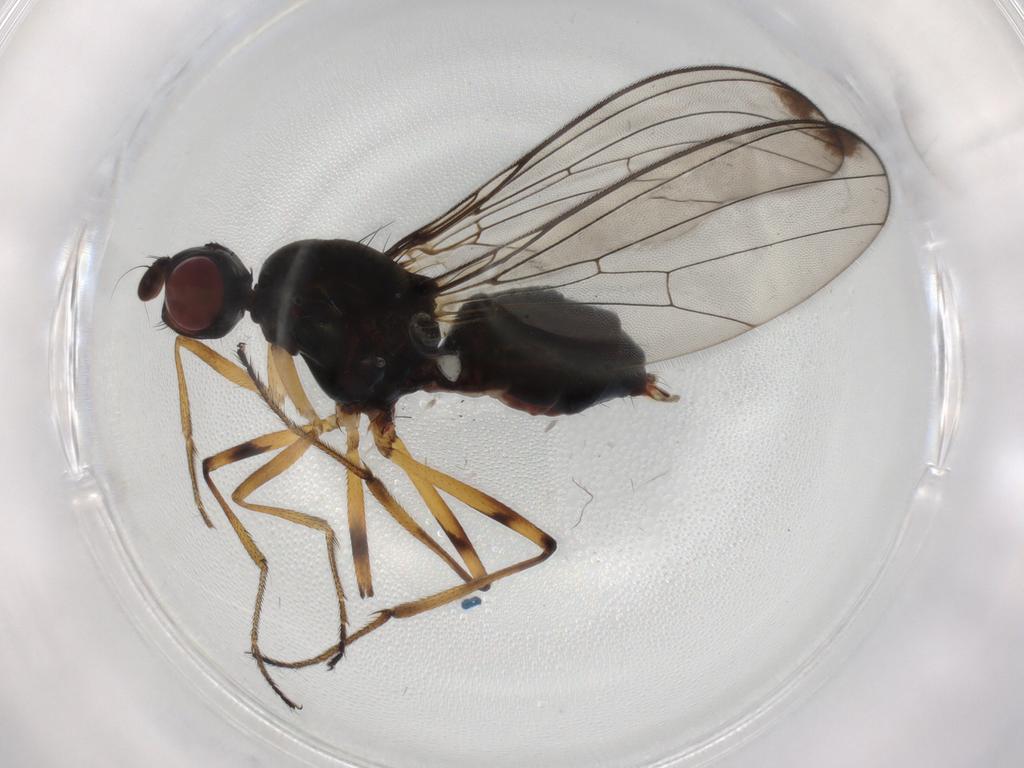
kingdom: Animalia
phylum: Arthropoda
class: Insecta
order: Diptera
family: Sepsidae
